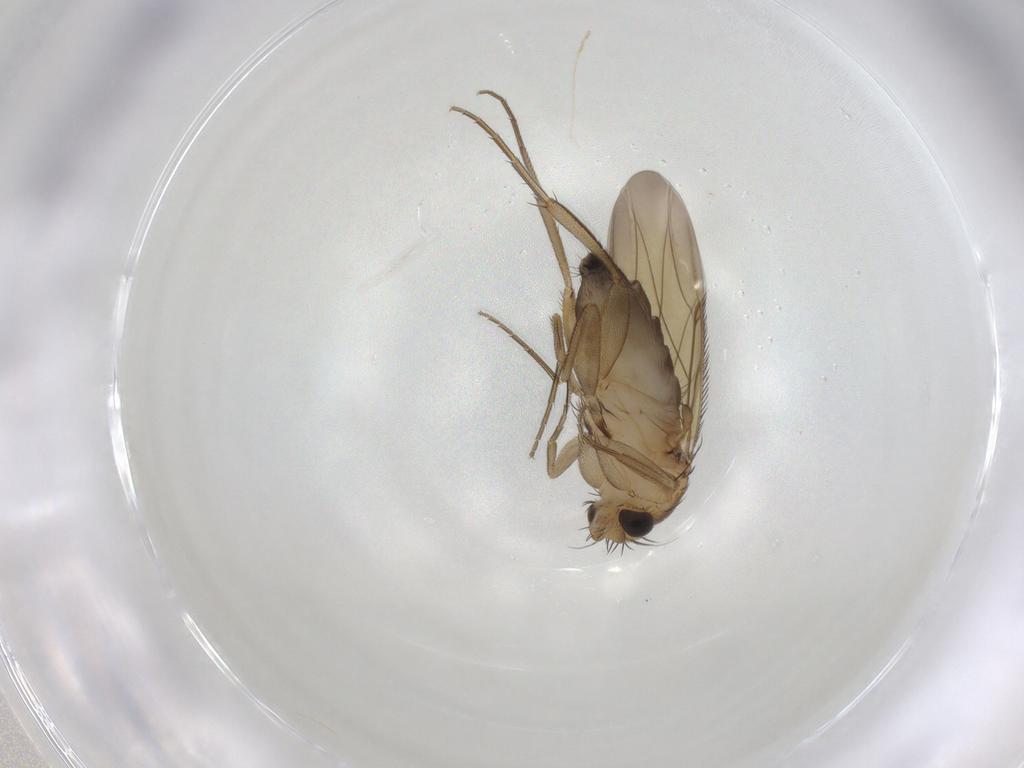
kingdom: Animalia
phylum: Arthropoda
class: Insecta
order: Diptera
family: Phoridae
